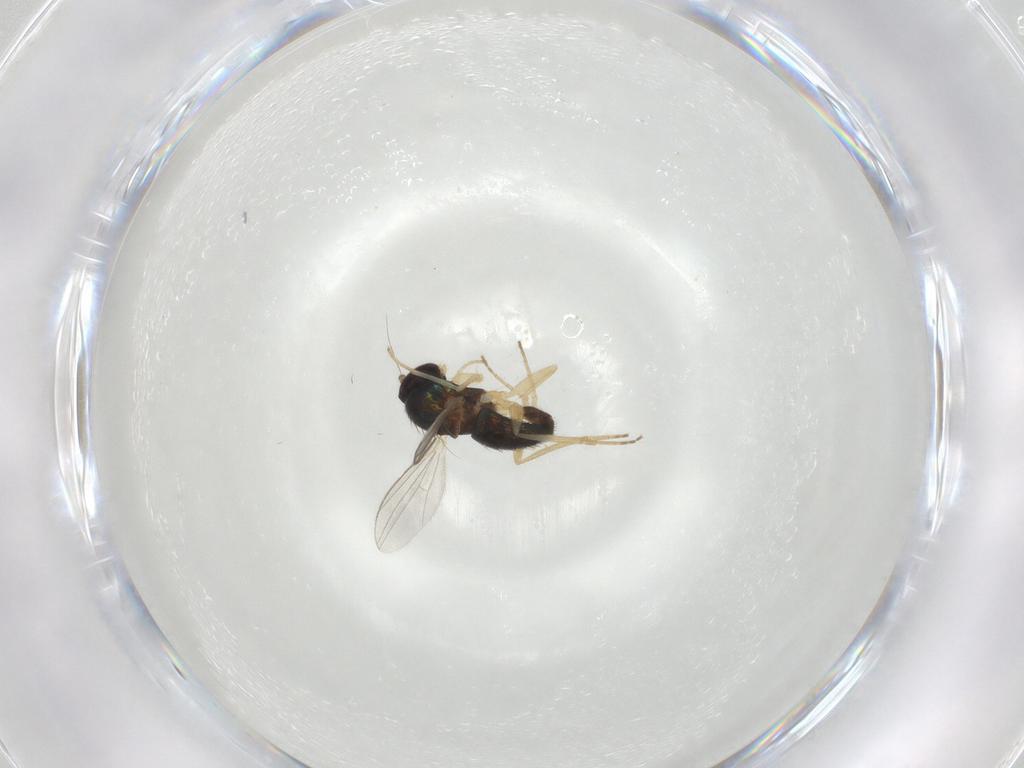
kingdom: Animalia
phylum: Arthropoda
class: Insecta
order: Diptera
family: Dolichopodidae
